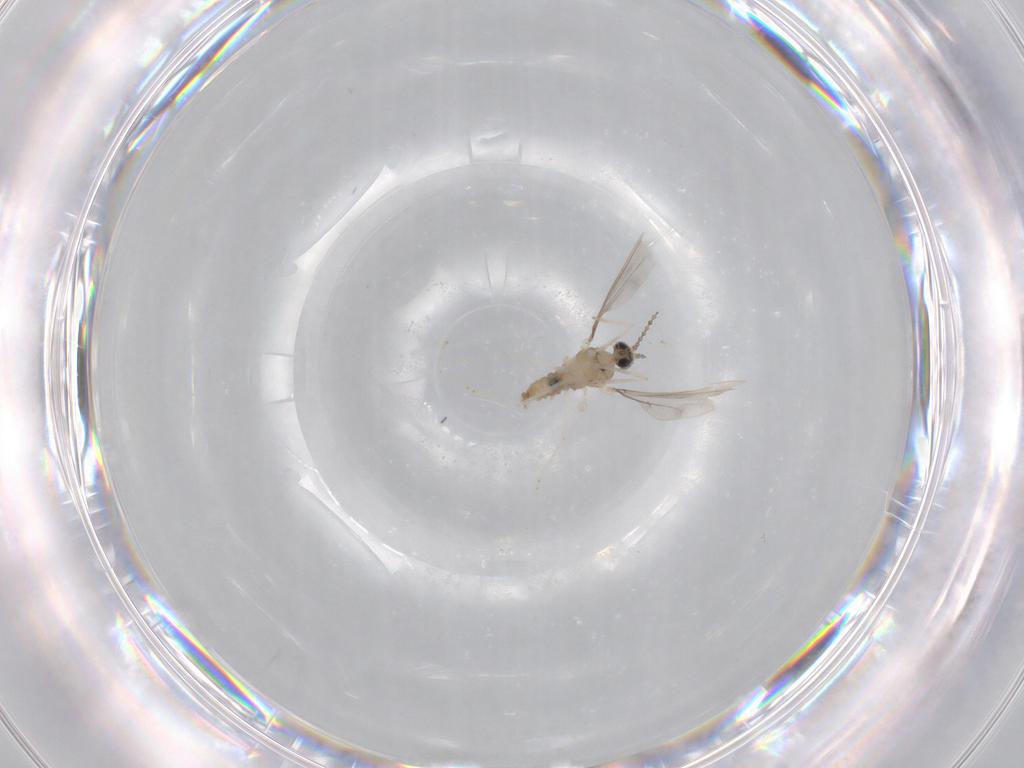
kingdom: Animalia
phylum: Arthropoda
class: Insecta
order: Diptera
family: Cecidomyiidae
